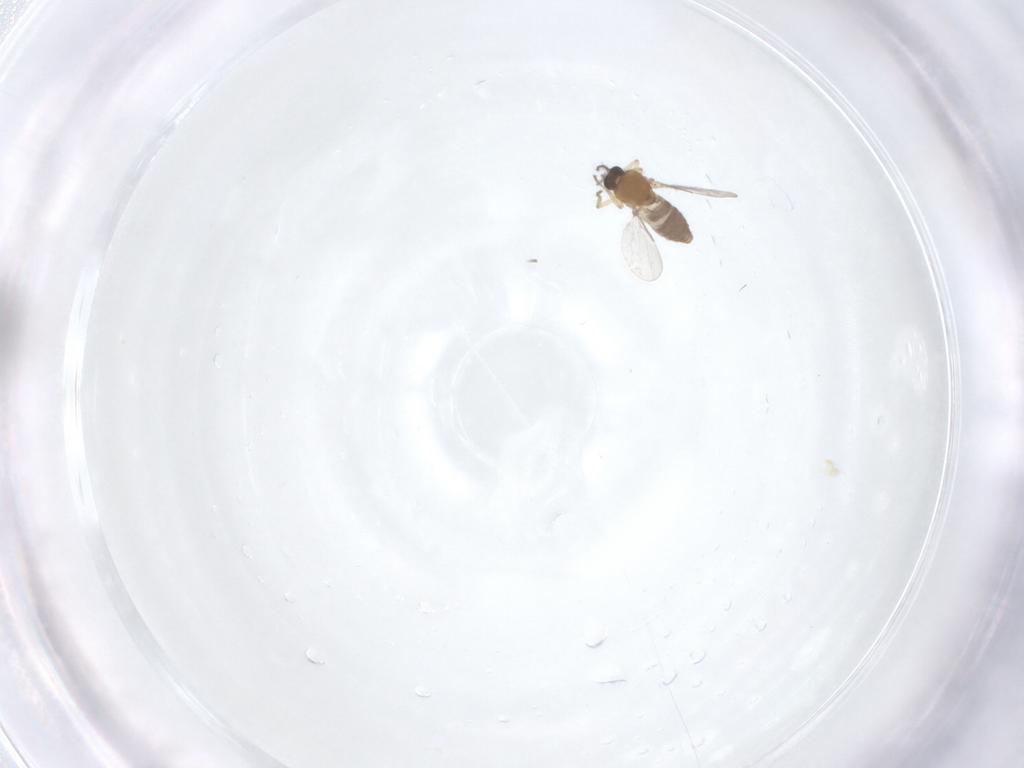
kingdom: Animalia
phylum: Arthropoda
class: Insecta
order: Diptera
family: Ceratopogonidae
